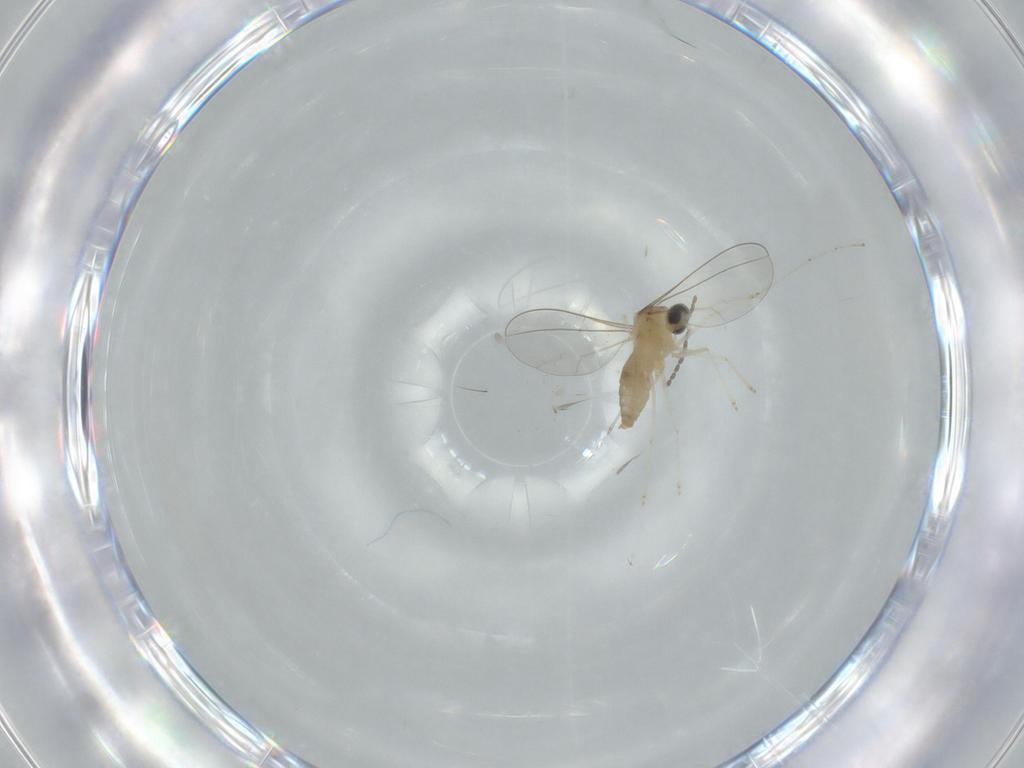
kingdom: Animalia
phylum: Arthropoda
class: Insecta
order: Diptera
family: Cecidomyiidae
